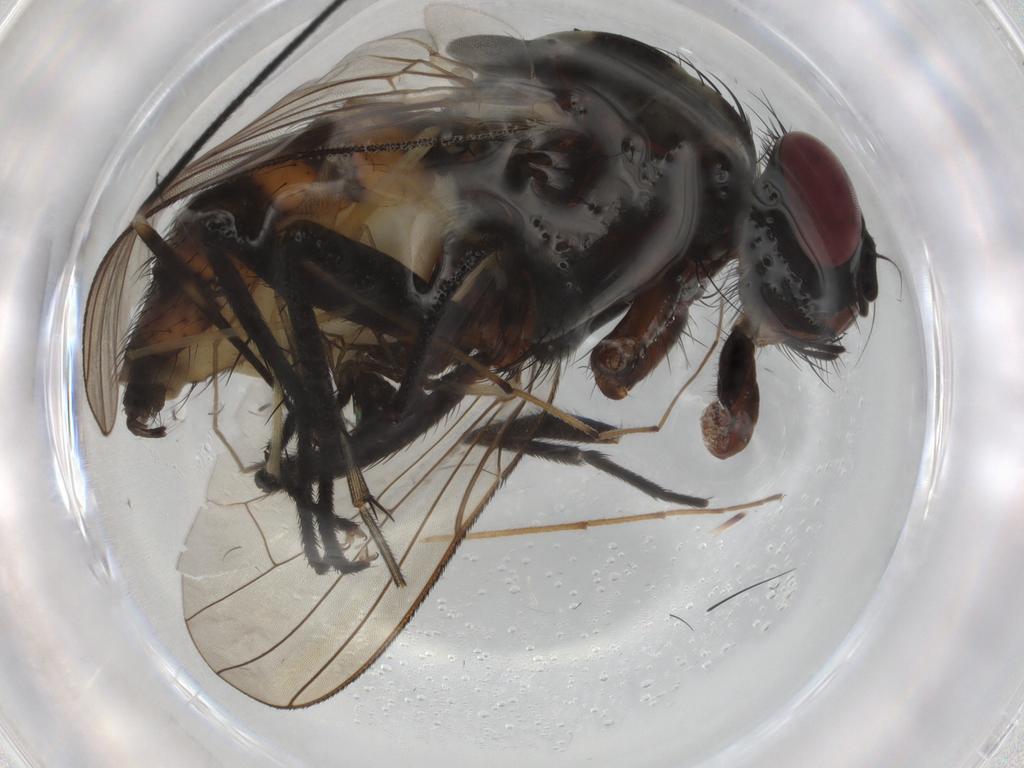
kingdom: Animalia
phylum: Arthropoda
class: Insecta
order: Diptera
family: Anthomyiidae
